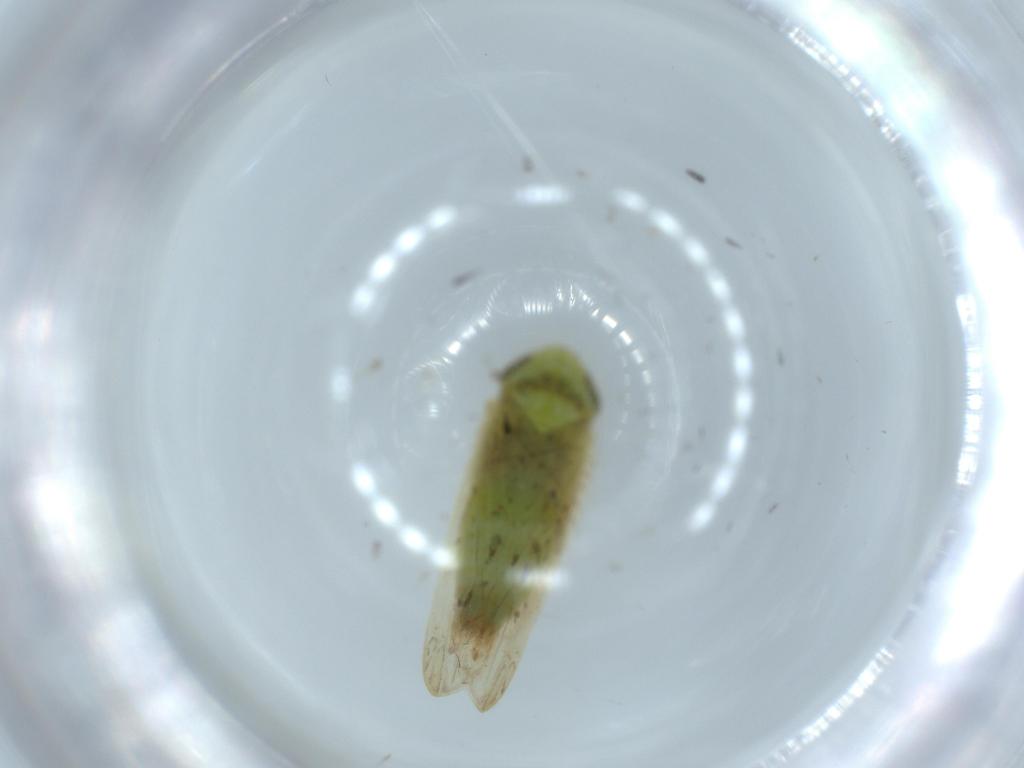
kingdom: Animalia
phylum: Arthropoda
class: Insecta
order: Hemiptera
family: Cicadellidae
